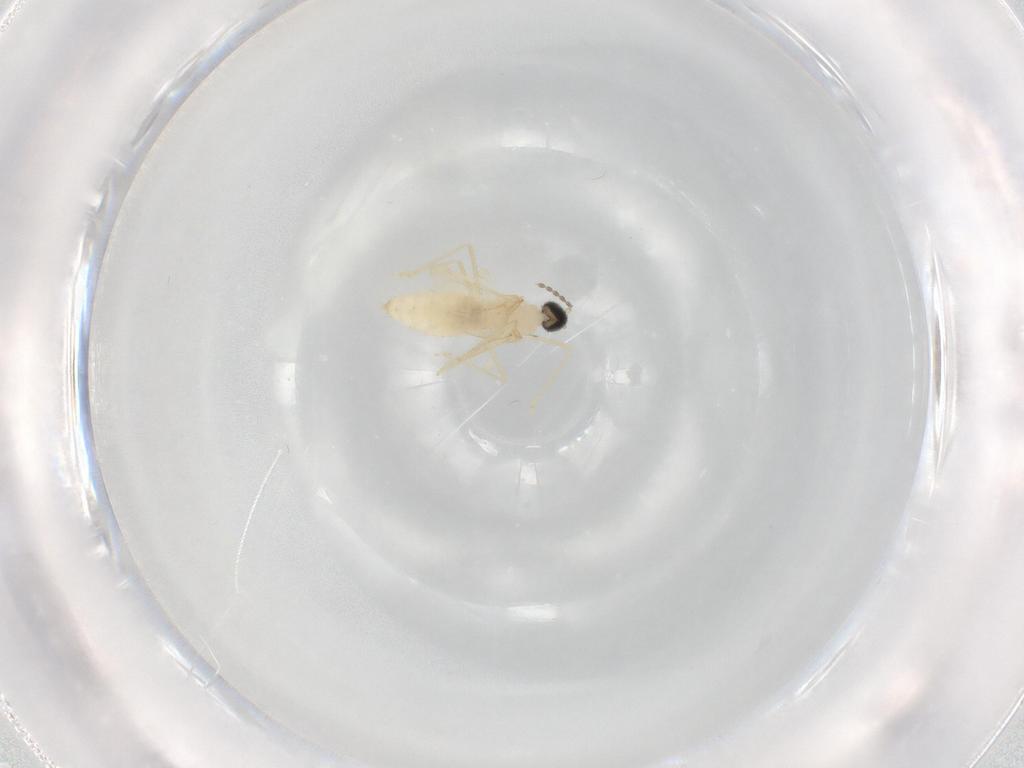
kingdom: Animalia
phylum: Arthropoda
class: Insecta
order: Diptera
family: Cecidomyiidae
